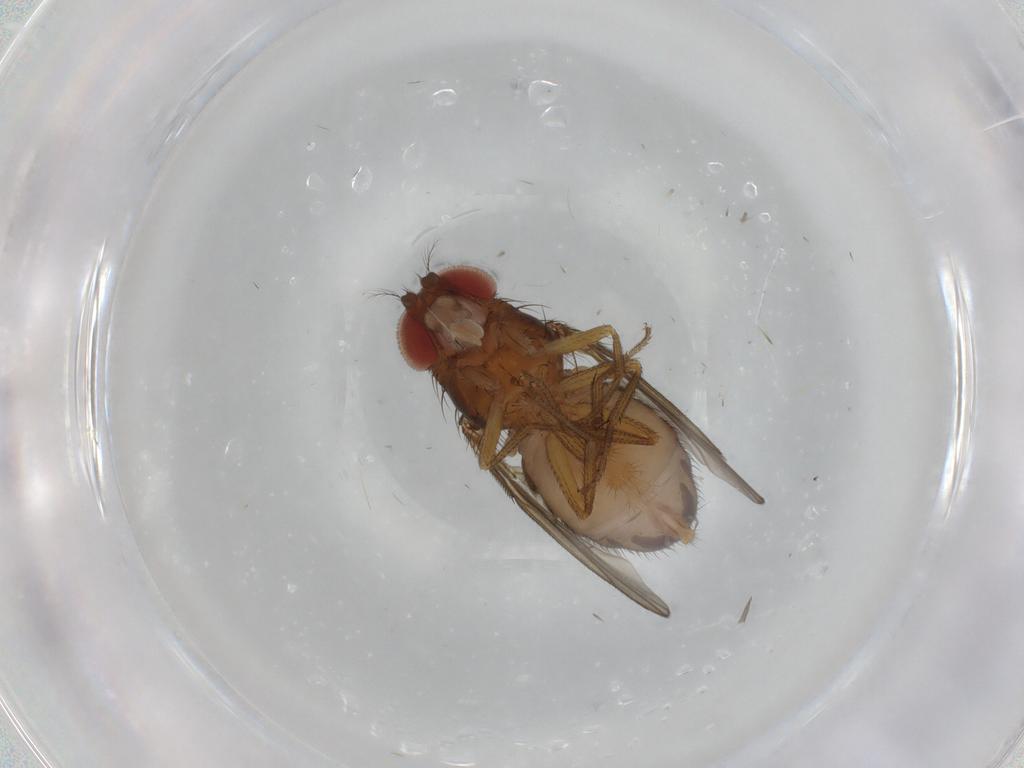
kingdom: Animalia
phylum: Arthropoda
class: Insecta
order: Diptera
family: Drosophilidae
